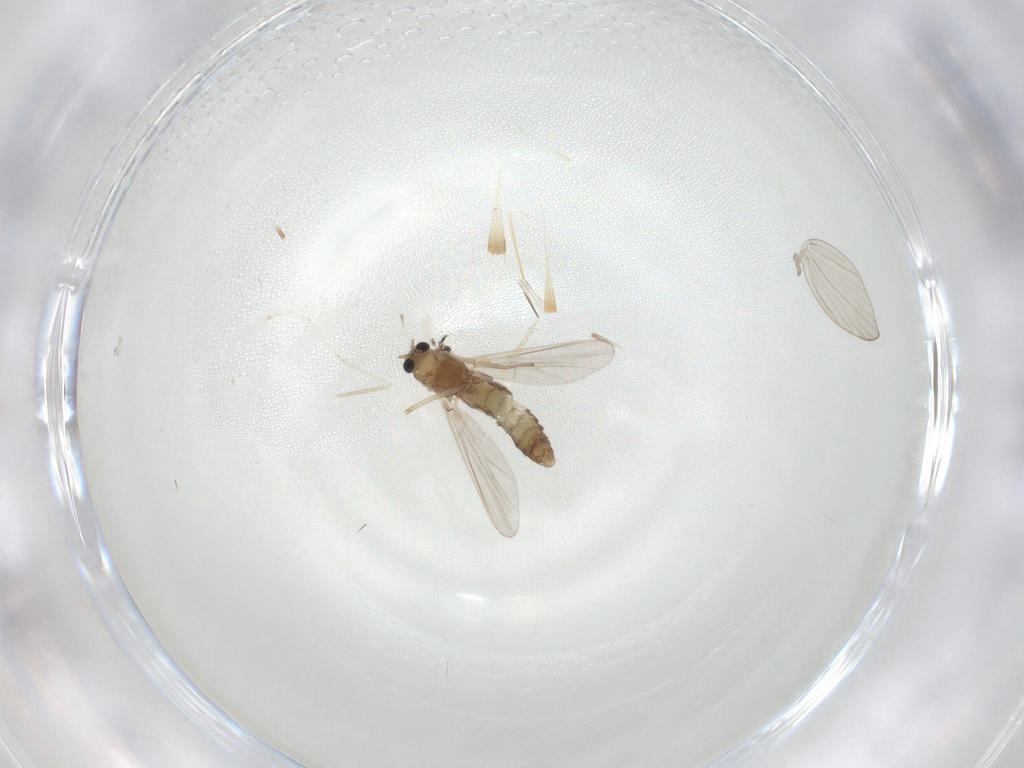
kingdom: Animalia
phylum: Arthropoda
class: Insecta
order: Diptera
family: Chironomidae
